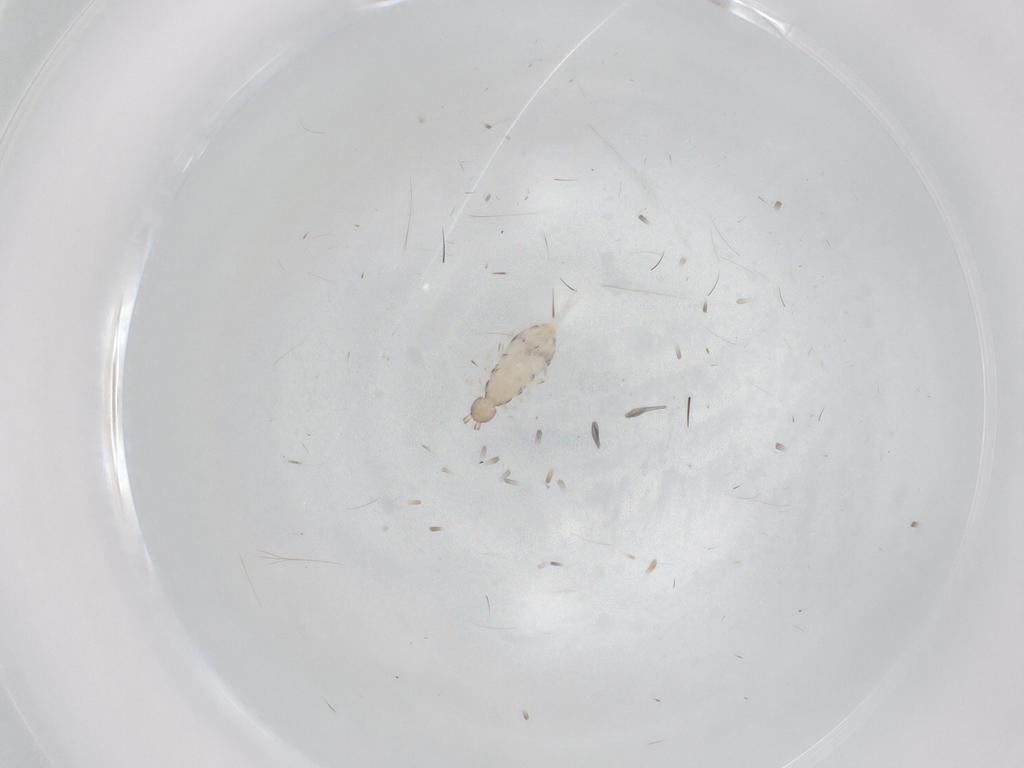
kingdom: Animalia
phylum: Arthropoda
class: Collembola
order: Entomobryomorpha
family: Entomobryidae
